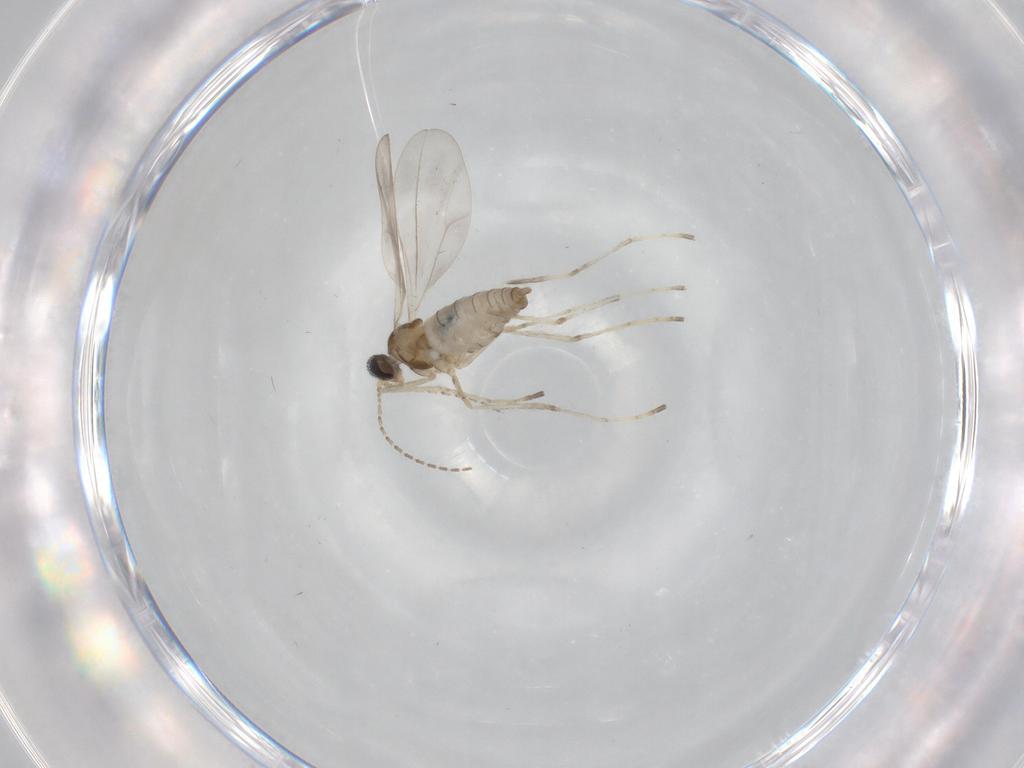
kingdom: Animalia
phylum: Arthropoda
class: Insecta
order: Diptera
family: Cecidomyiidae
